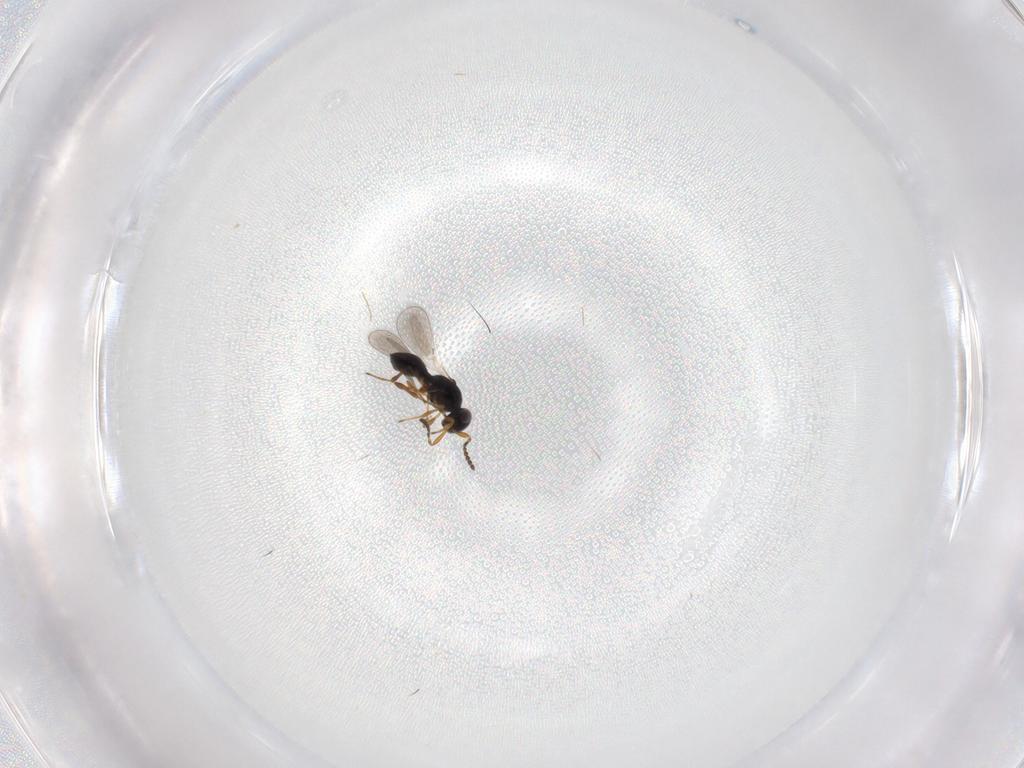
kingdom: Animalia
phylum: Arthropoda
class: Insecta
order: Hymenoptera
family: Platygastridae
